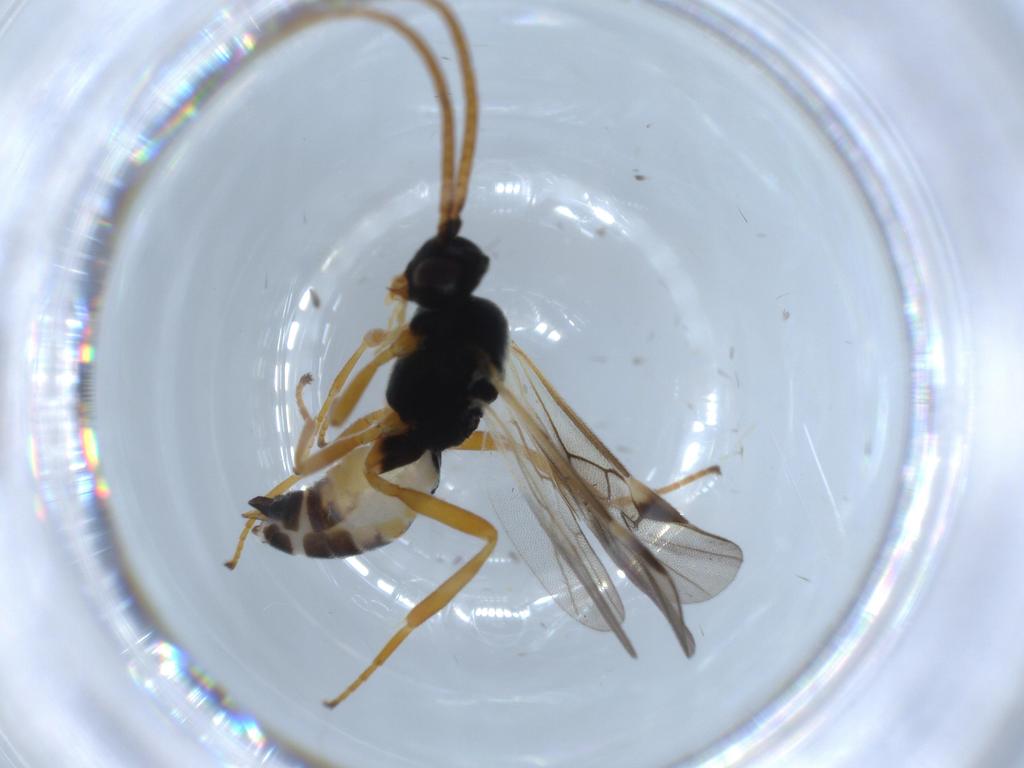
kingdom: Animalia
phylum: Arthropoda
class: Insecta
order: Hymenoptera
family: Braconidae
